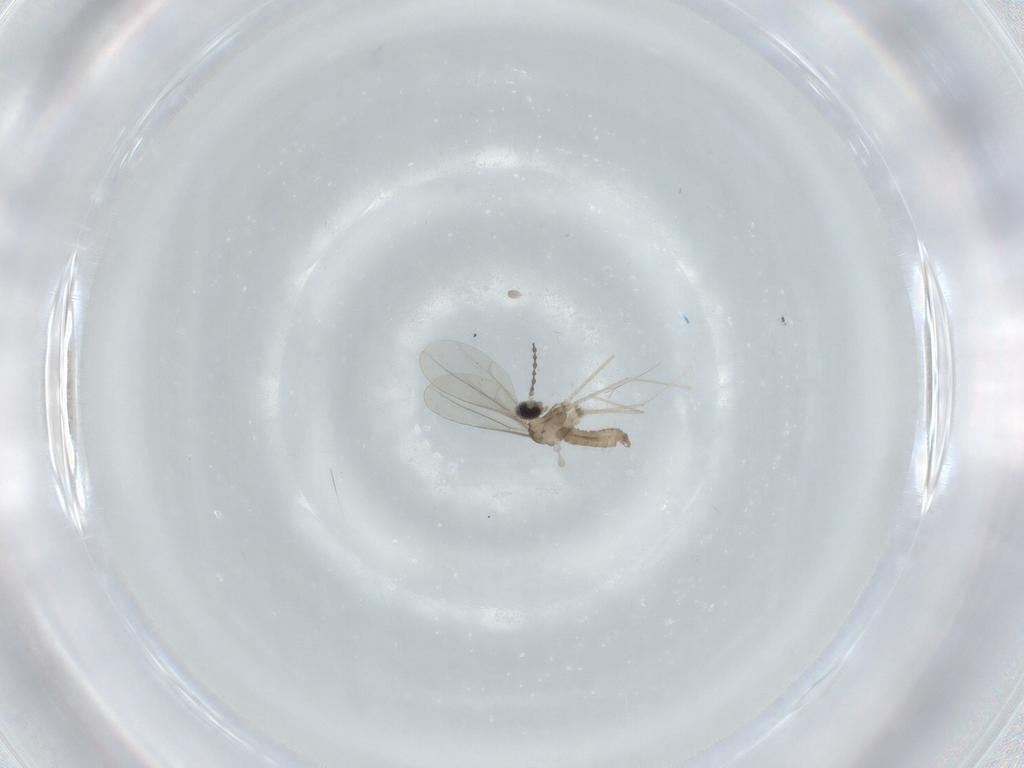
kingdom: Animalia
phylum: Arthropoda
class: Insecta
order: Diptera
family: Cecidomyiidae
